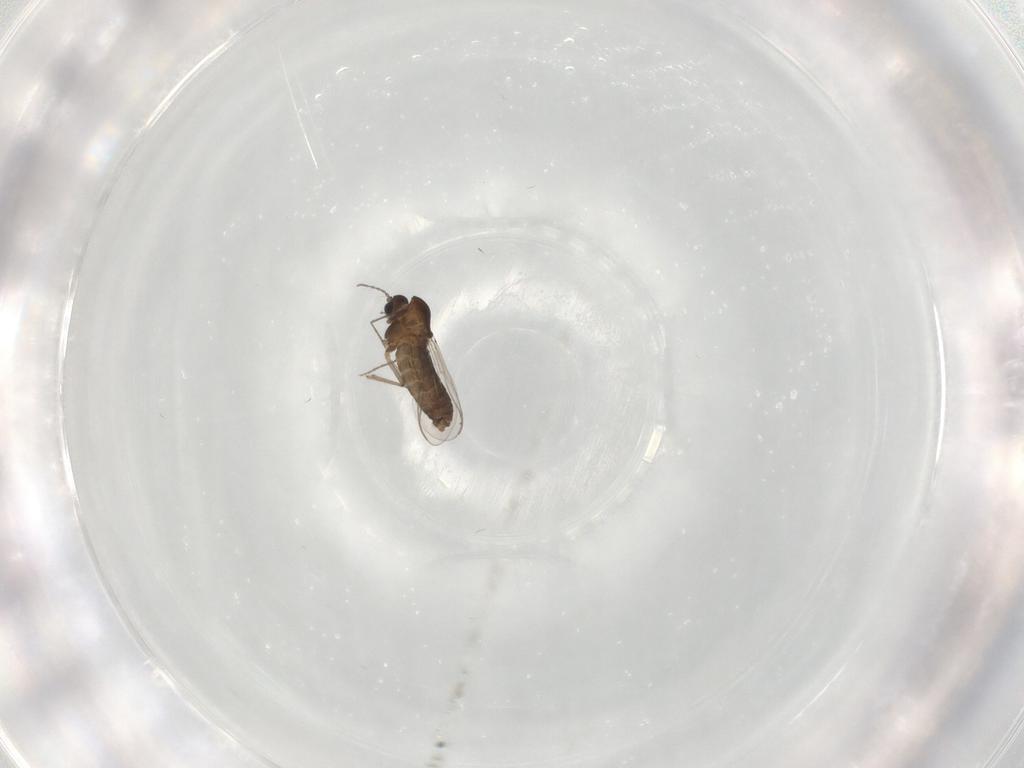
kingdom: Animalia
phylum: Arthropoda
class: Insecta
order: Diptera
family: Chironomidae
